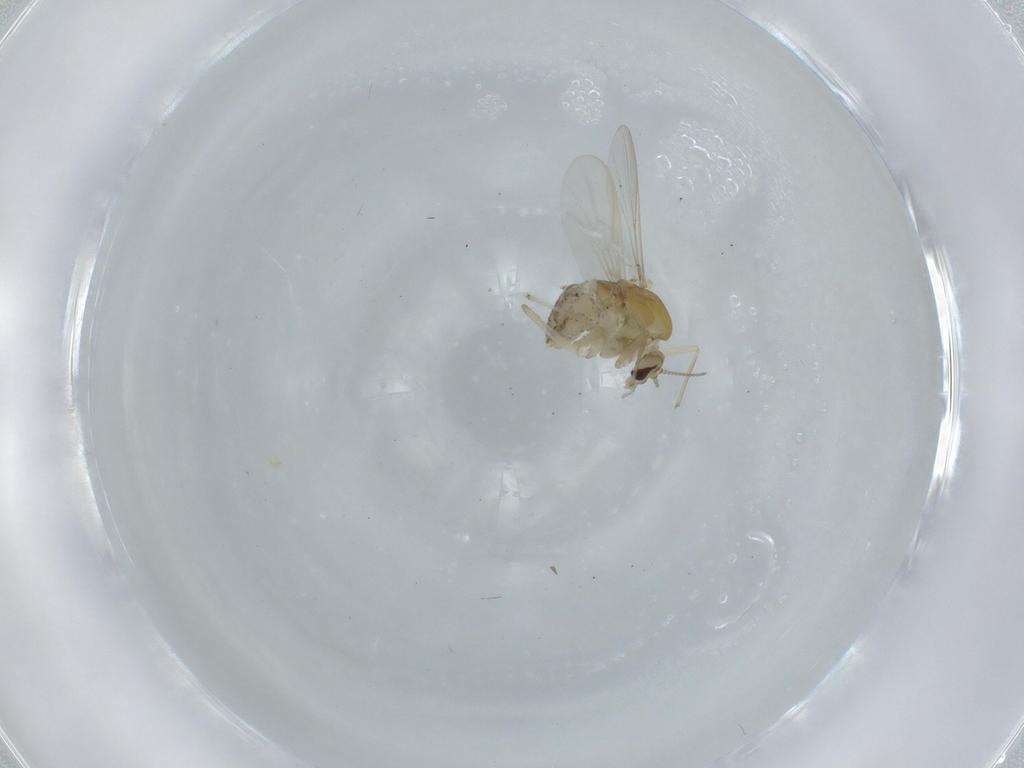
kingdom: Animalia
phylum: Arthropoda
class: Insecta
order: Diptera
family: Chironomidae
